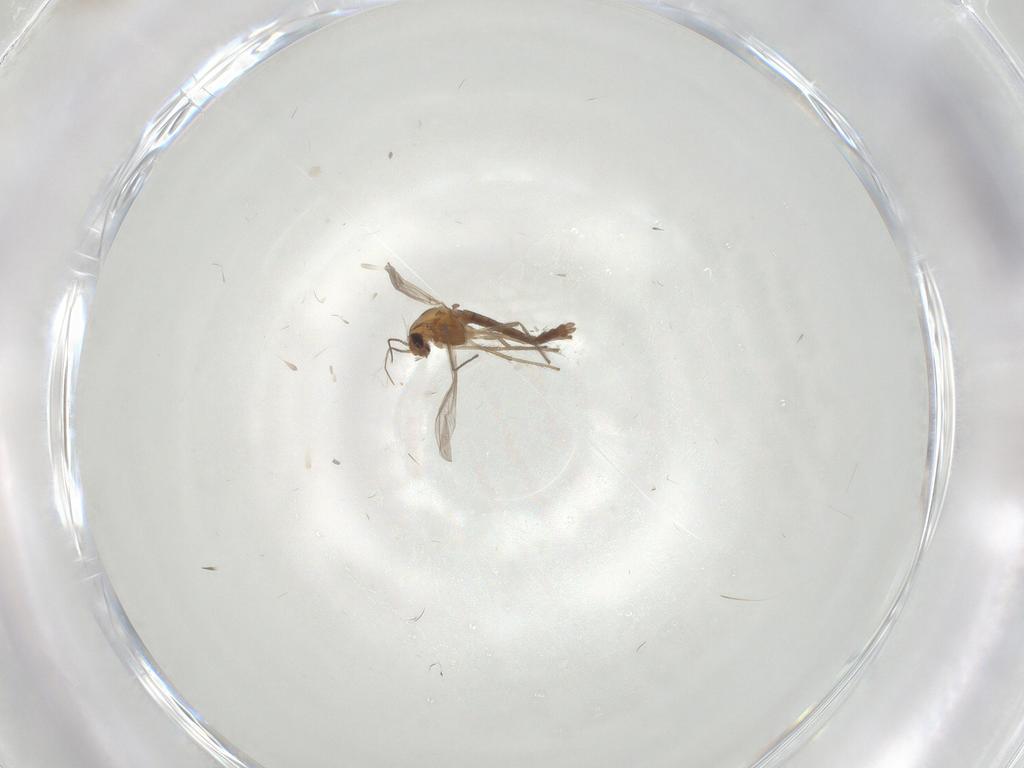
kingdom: Animalia
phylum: Arthropoda
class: Insecta
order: Diptera
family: Chironomidae
